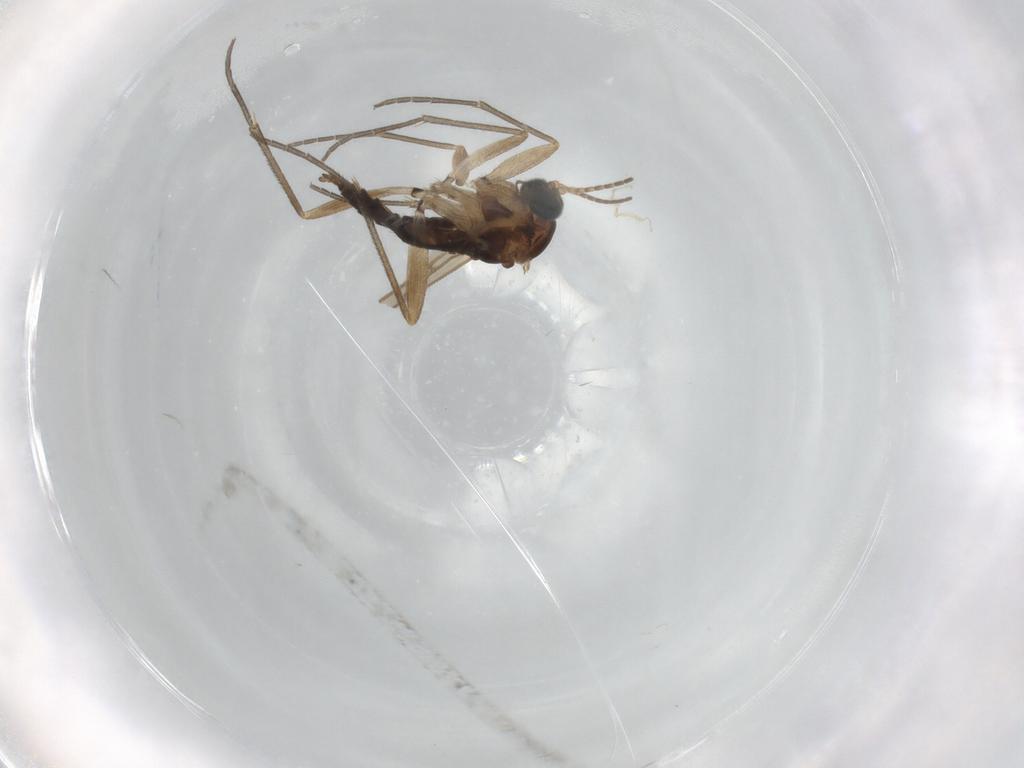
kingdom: Animalia
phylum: Arthropoda
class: Insecta
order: Diptera
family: Sciaridae
